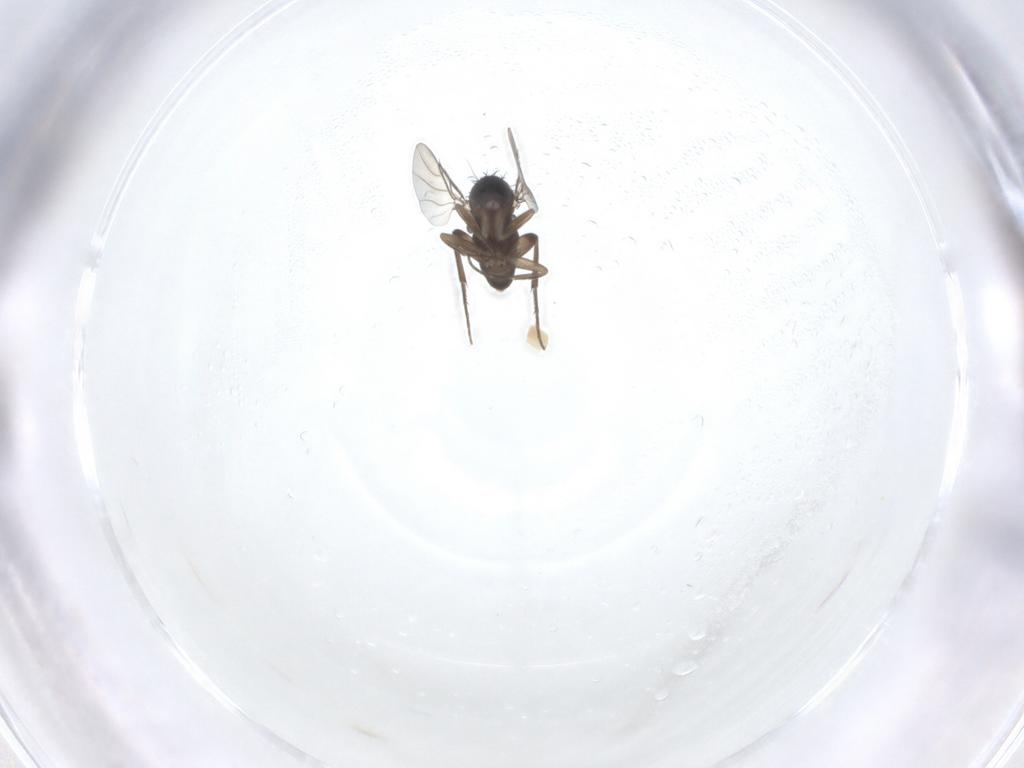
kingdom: Animalia
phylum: Arthropoda
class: Insecta
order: Diptera
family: Phoridae
